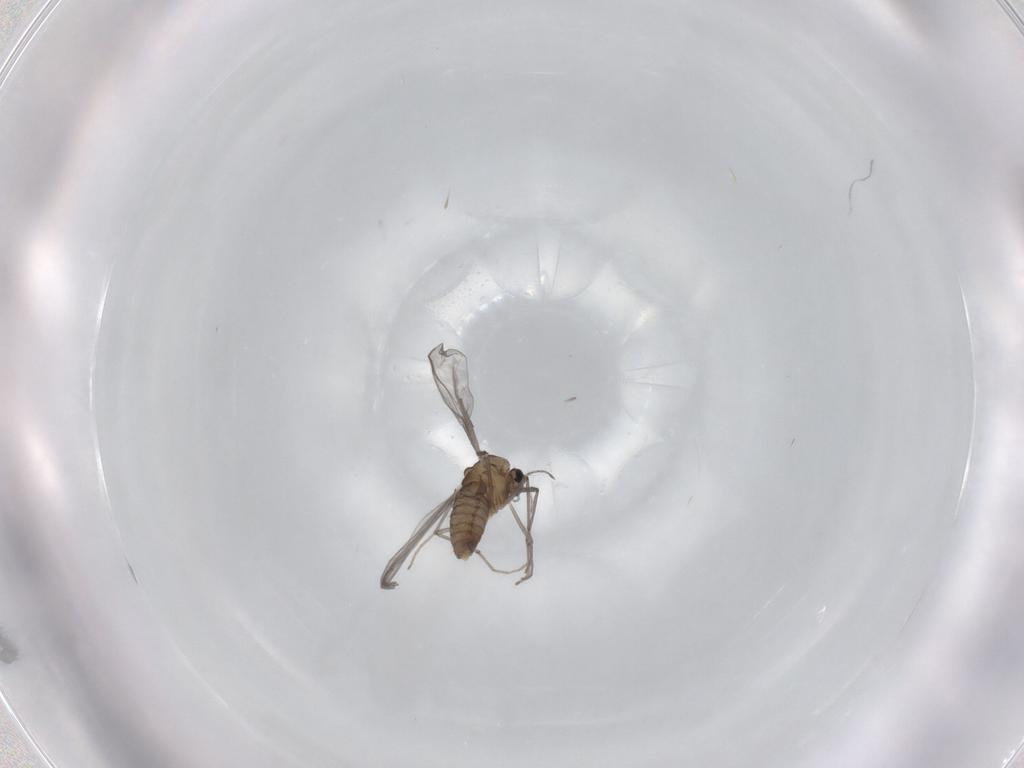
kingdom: Animalia
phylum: Arthropoda
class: Insecta
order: Diptera
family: Chironomidae
